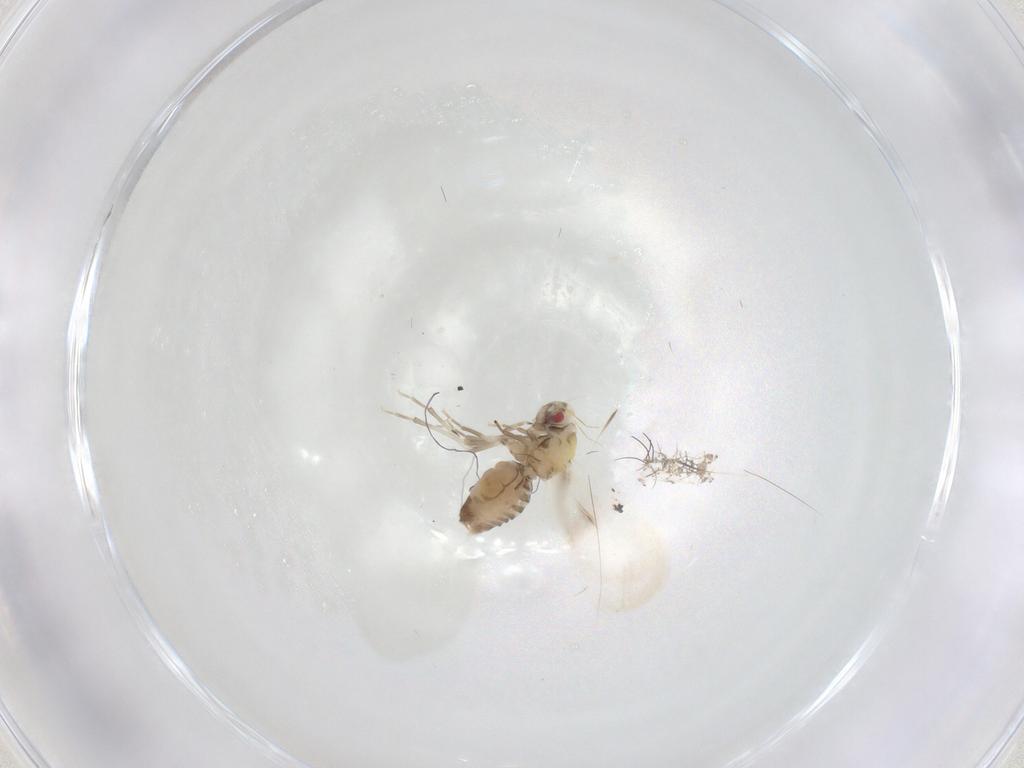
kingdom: Animalia
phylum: Arthropoda
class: Insecta
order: Diptera
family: Dolichopodidae
